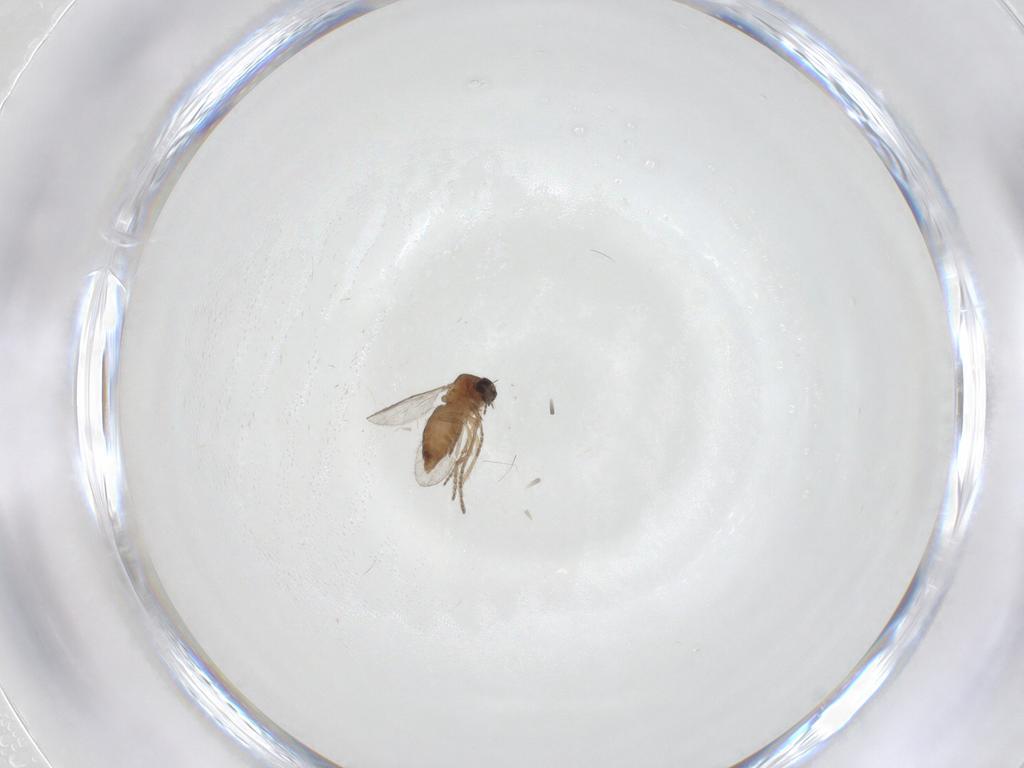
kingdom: Animalia
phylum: Arthropoda
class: Insecta
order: Diptera
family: Ceratopogonidae
